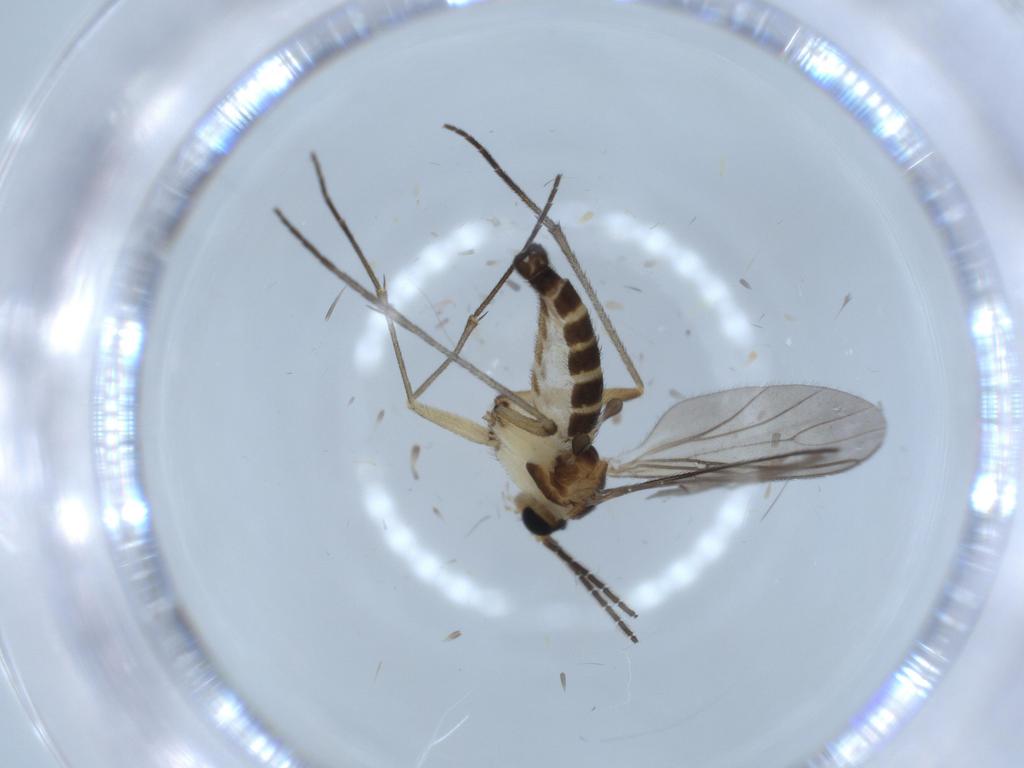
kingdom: Animalia
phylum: Arthropoda
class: Insecta
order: Diptera
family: Sciaridae
